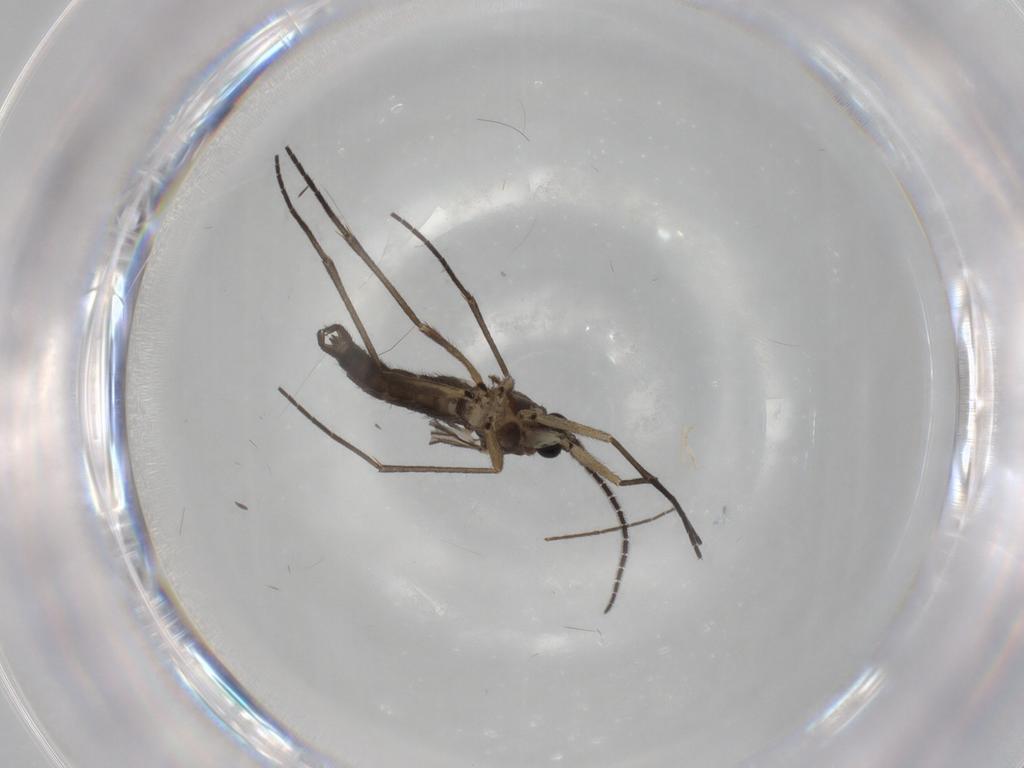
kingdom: Animalia
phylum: Arthropoda
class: Insecta
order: Diptera
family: Sciaridae
